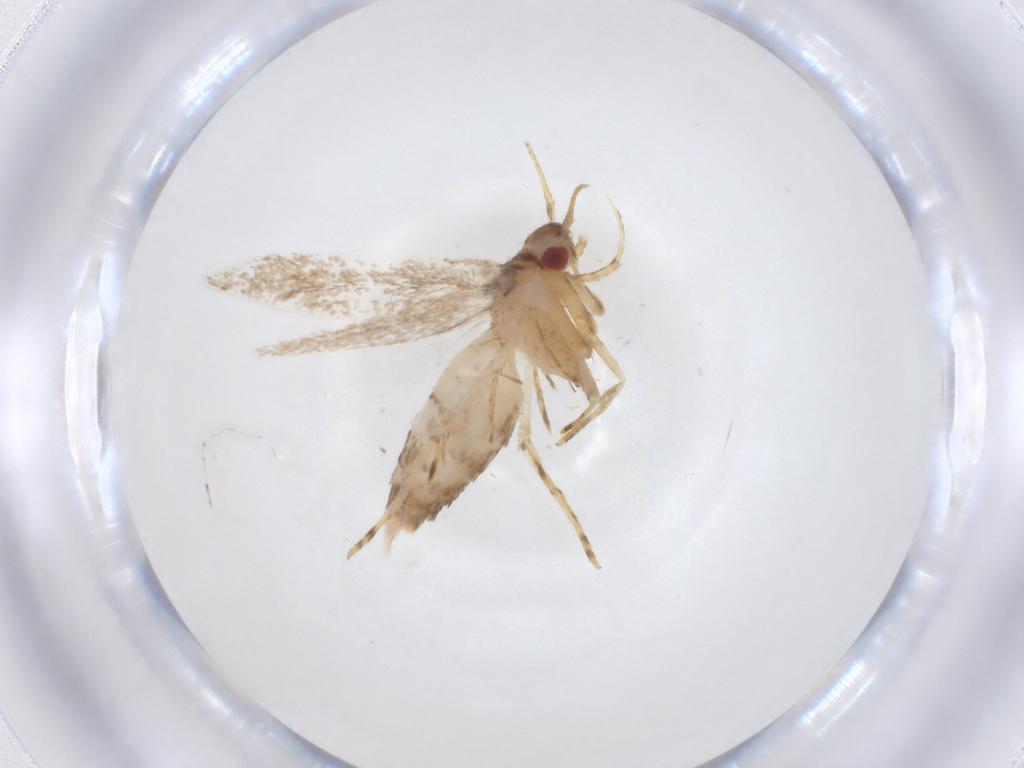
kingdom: Animalia
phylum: Arthropoda
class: Insecta
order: Lepidoptera
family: Cosmopterigidae
